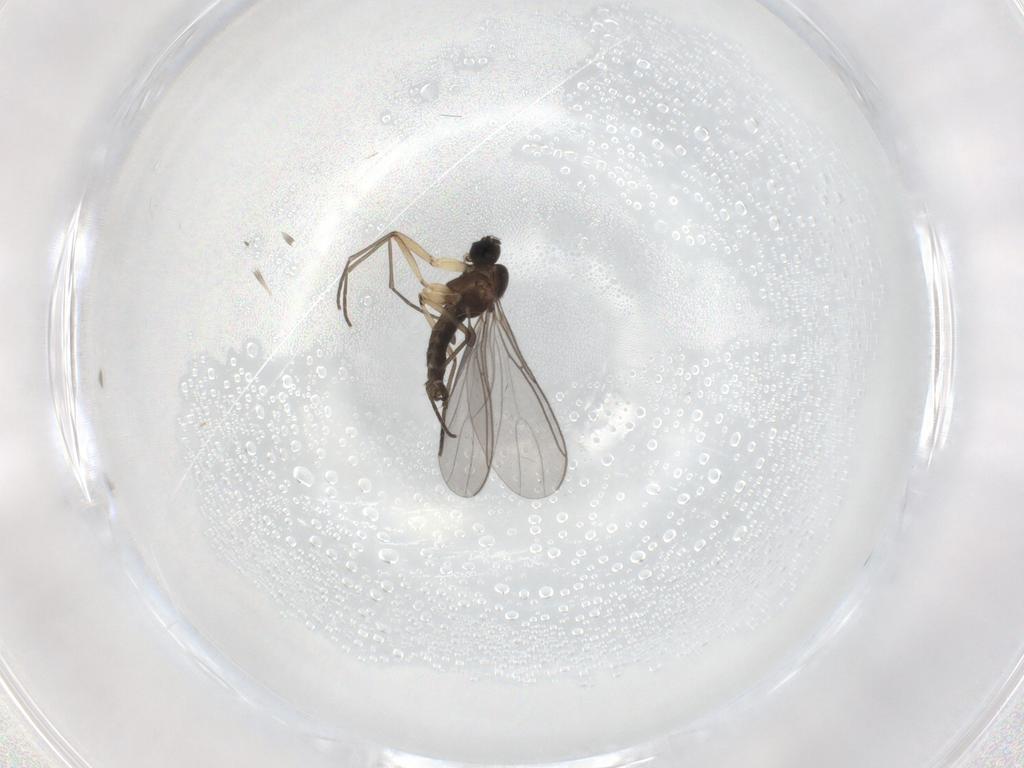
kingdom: Animalia
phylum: Arthropoda
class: Insecta
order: Diptera
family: Sciaridae
